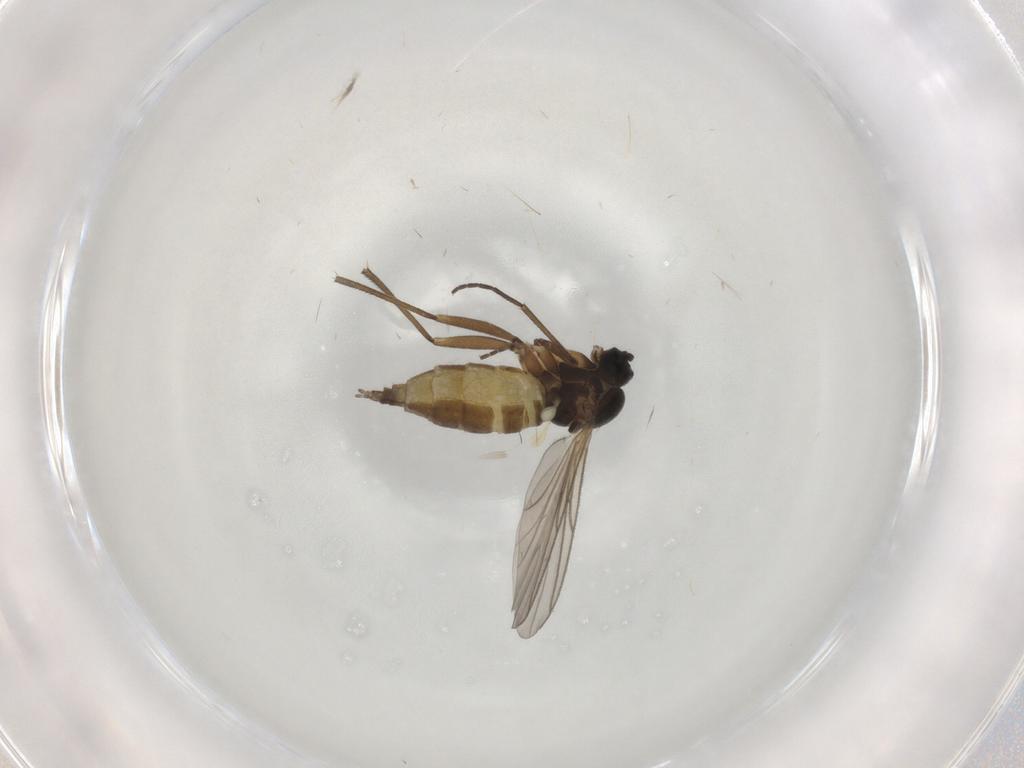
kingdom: Animalia
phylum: Arthropoda
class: Insecta
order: Diptera
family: Sciaridae
